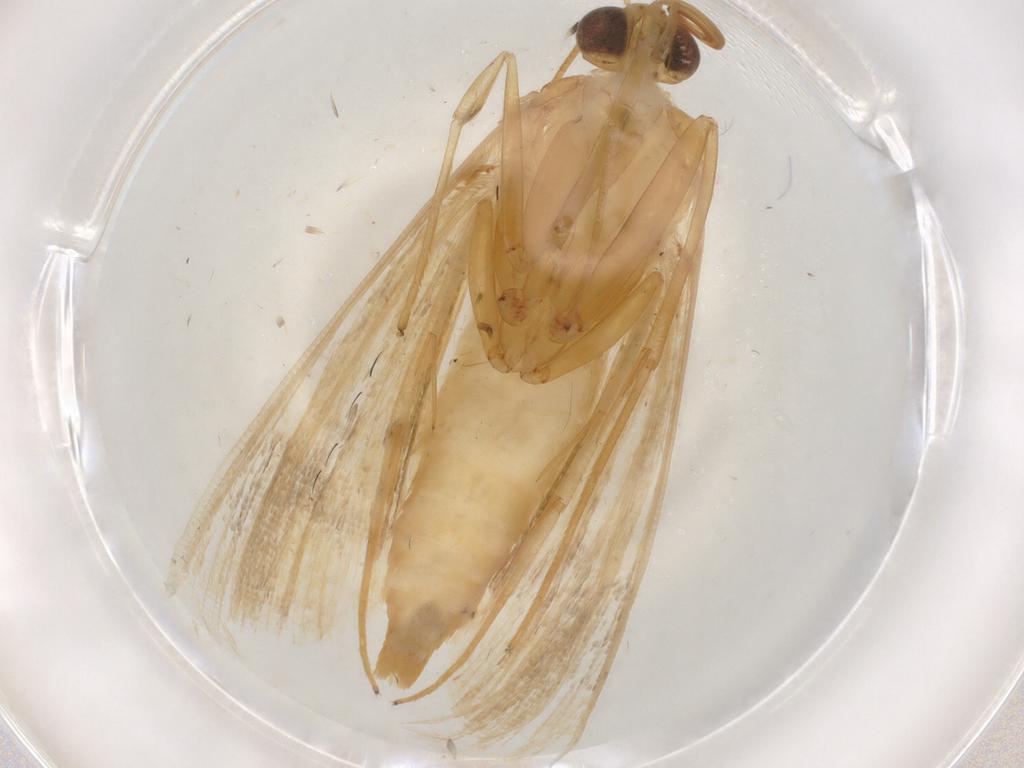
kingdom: Animalia
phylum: Arthropoda
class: Insecta
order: Lepidoptera
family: Crambidae
